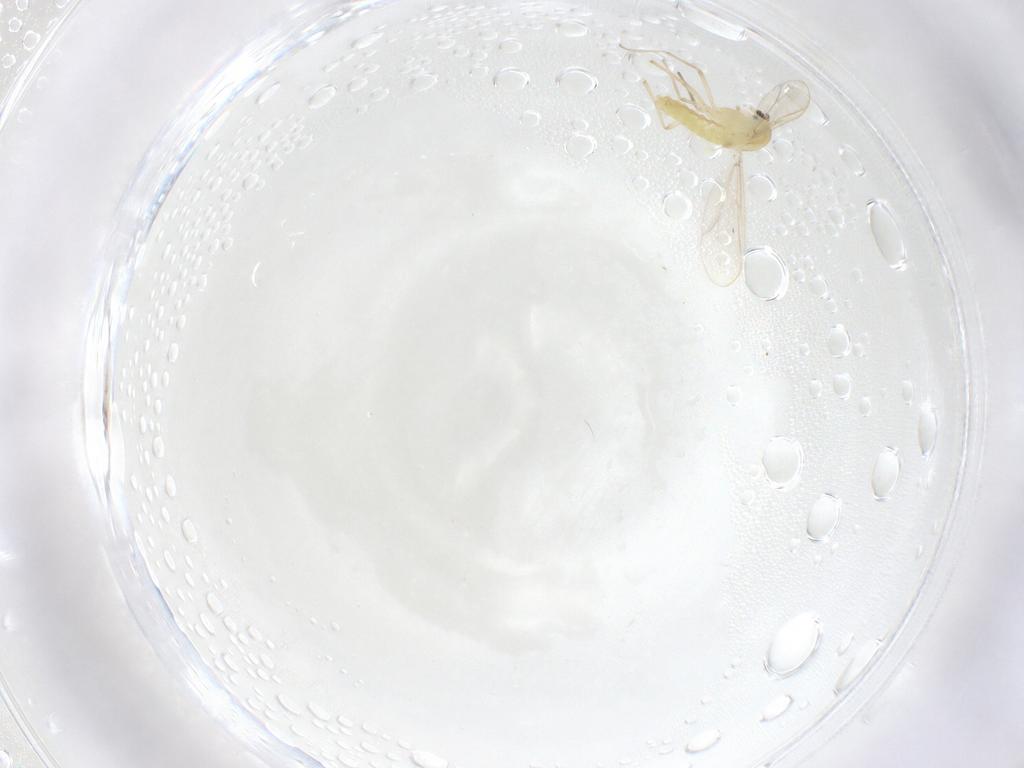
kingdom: Animalia
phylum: Arthropoda
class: Insecta
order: Diptera
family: Chironomidae
